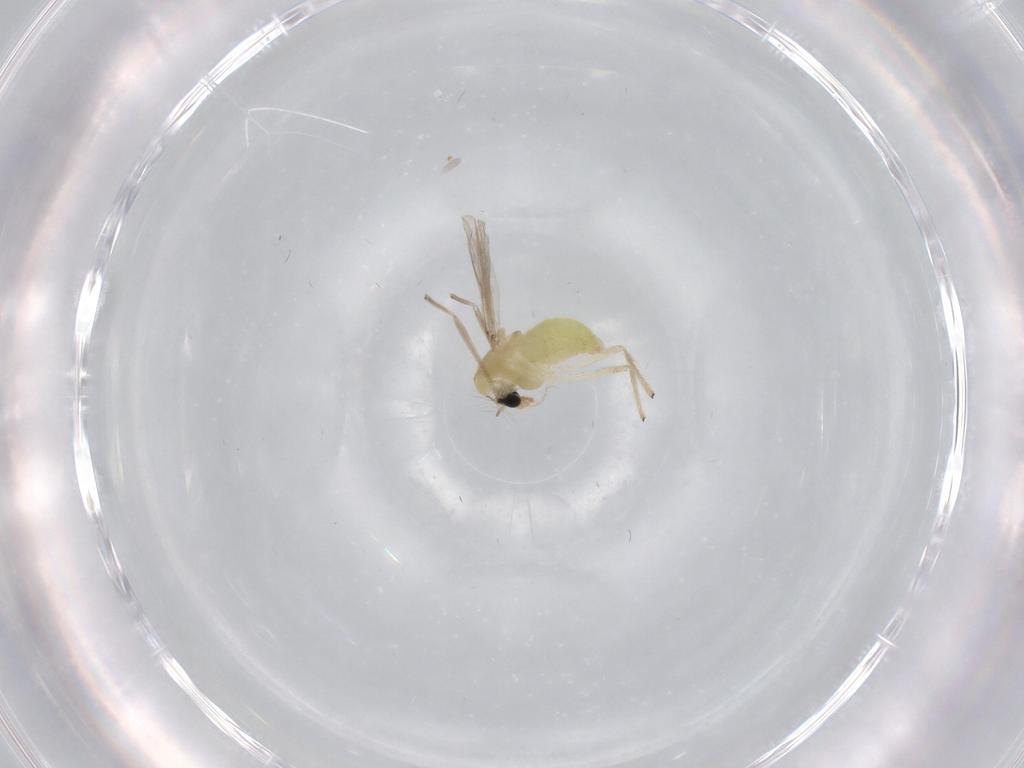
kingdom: Animalia
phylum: Arthropoda
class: Insecta
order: Diptera
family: Chironomidae
